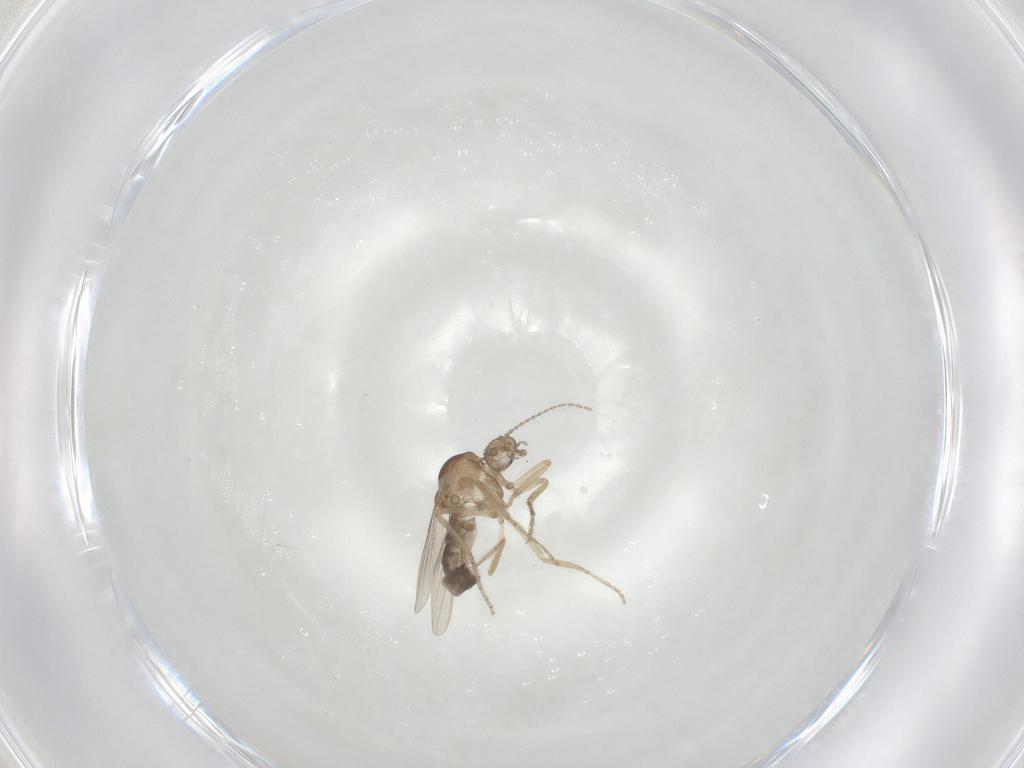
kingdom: Animalia
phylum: Arthropoda
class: Insecta
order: Diptera
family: Ceratopogonidae
